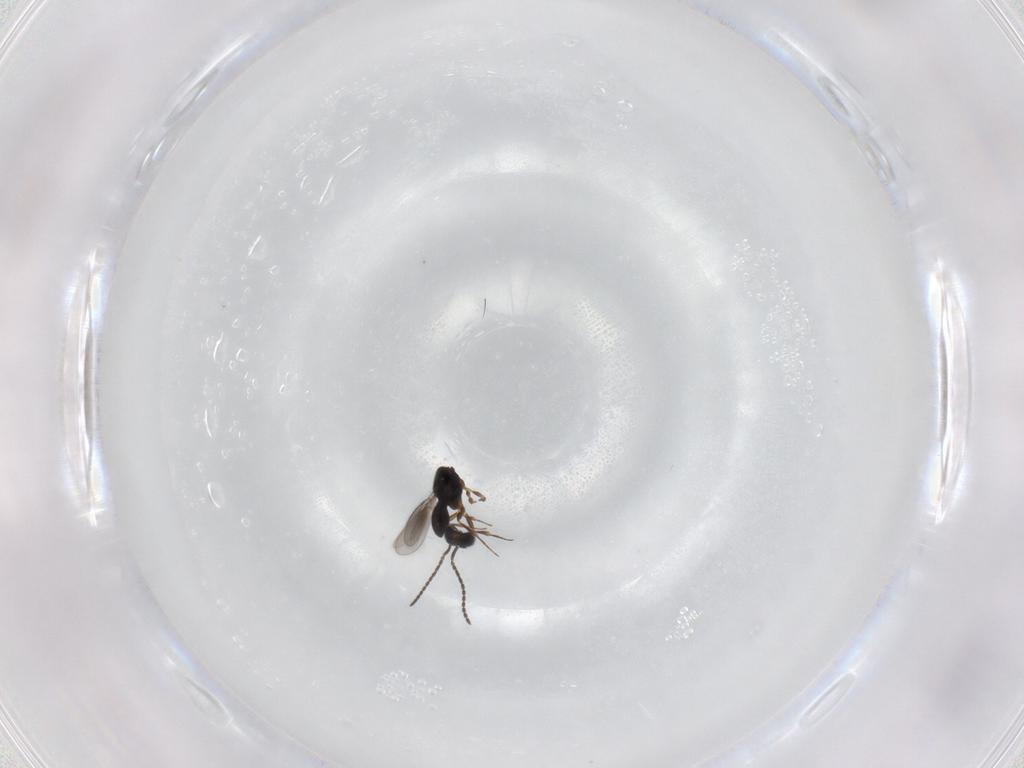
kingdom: Animalia
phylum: Arthropoda
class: Insecta
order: Hymenoptera
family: Scelionidae
